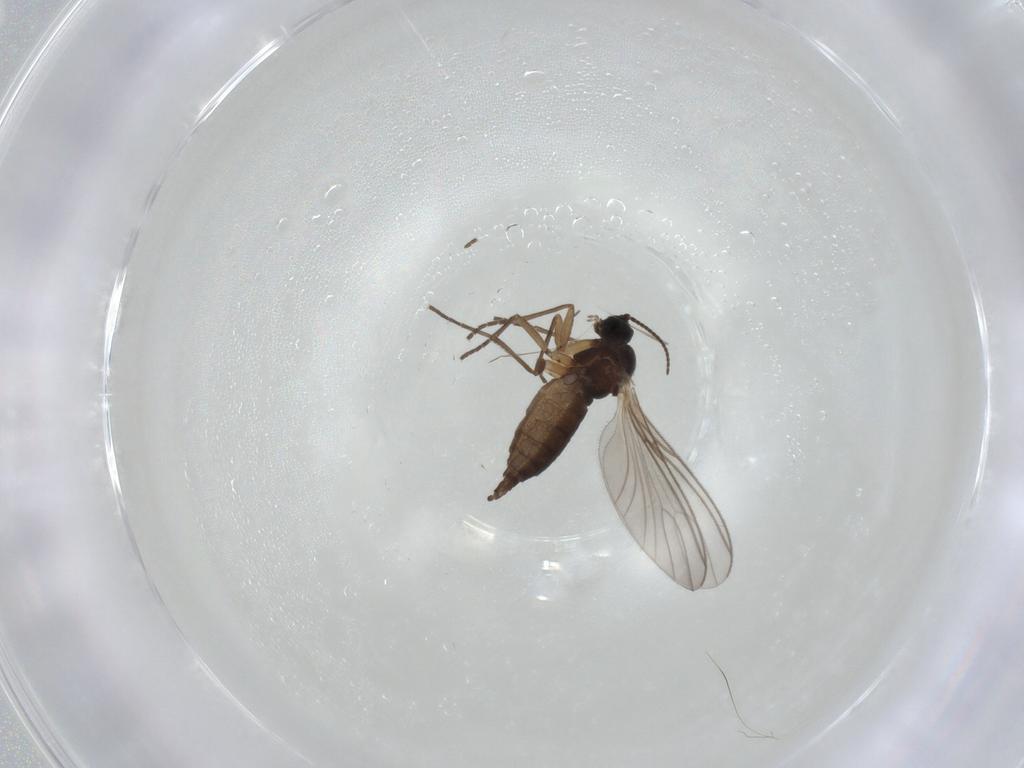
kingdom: Animalia
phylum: Arthropoda
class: Insecta
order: Diptera
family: Sciaridae
